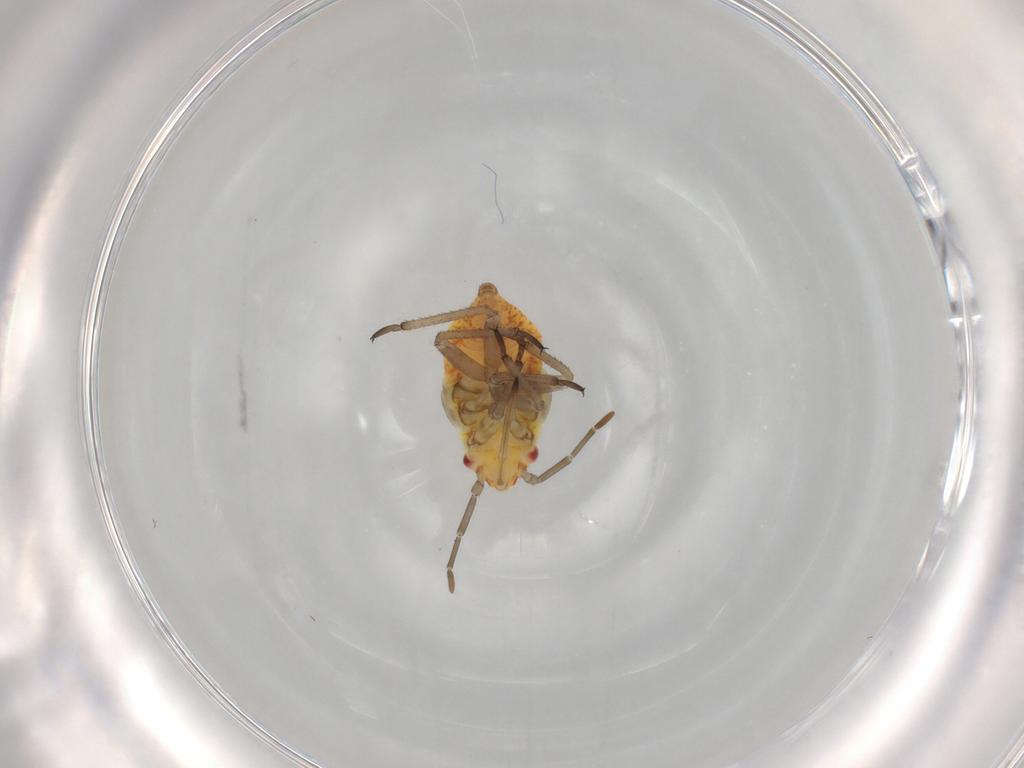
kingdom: Animalia
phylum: Arthropoda
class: Insecta
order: Hemiptera
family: Miridae
